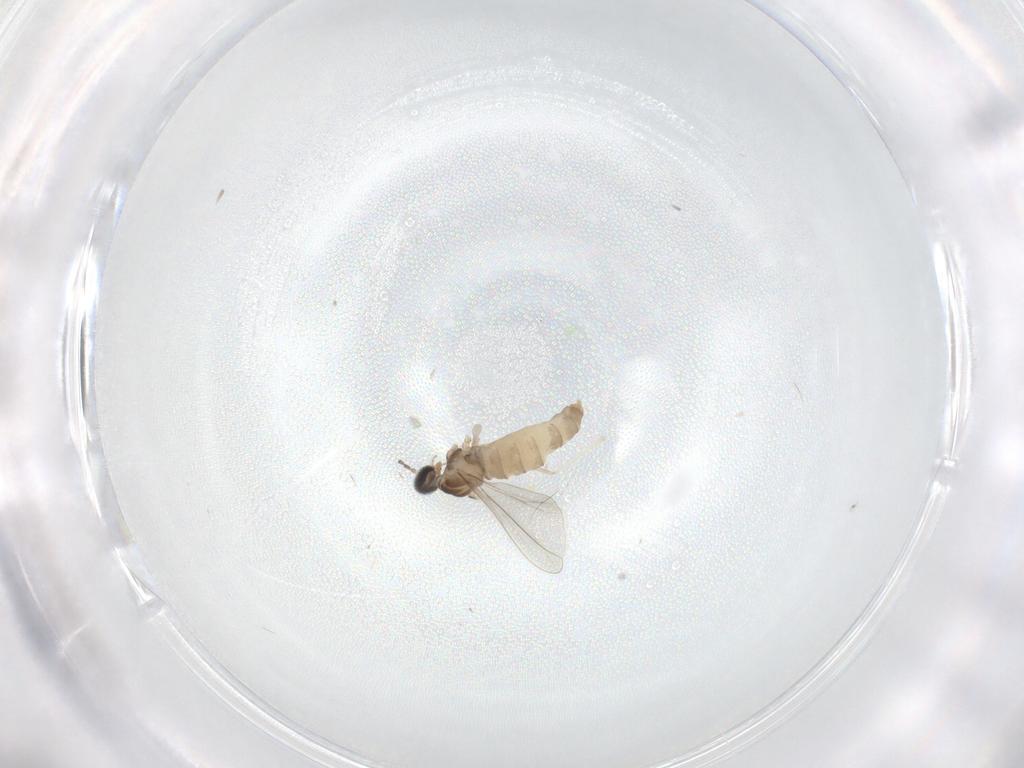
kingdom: Animalia
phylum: Arthropoda
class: Insecta
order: Diptera
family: Cecidomyiidae
